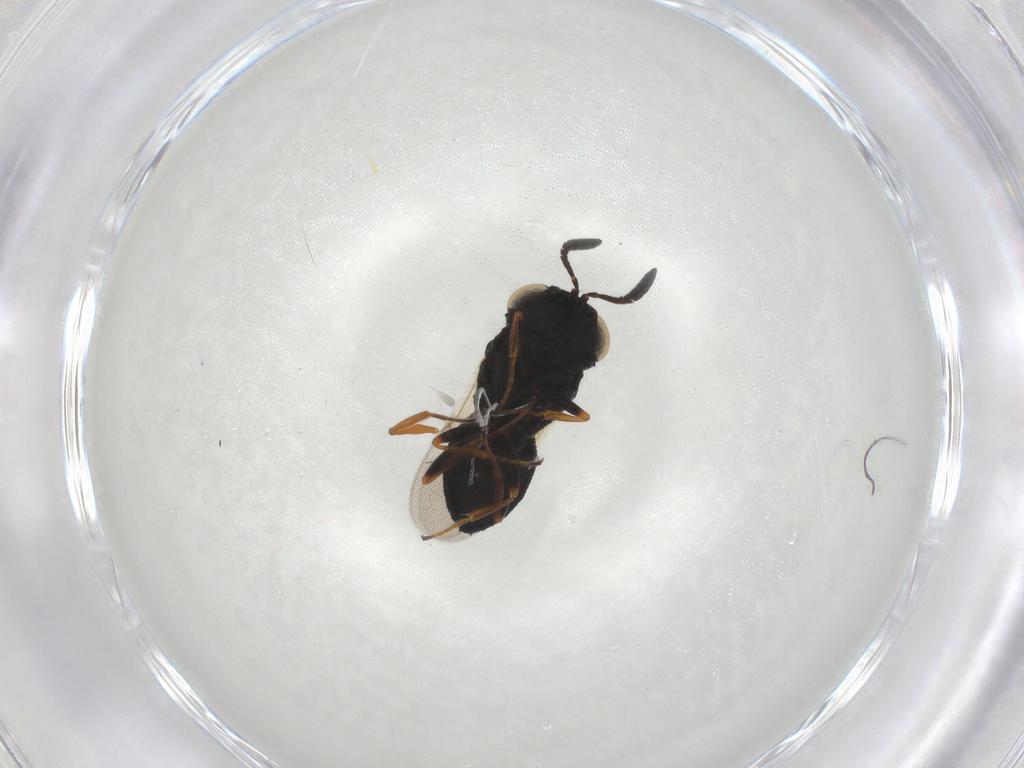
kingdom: Animalia
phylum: Arthropoda
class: Insecta
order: Hymenoptera
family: Scelionidae
